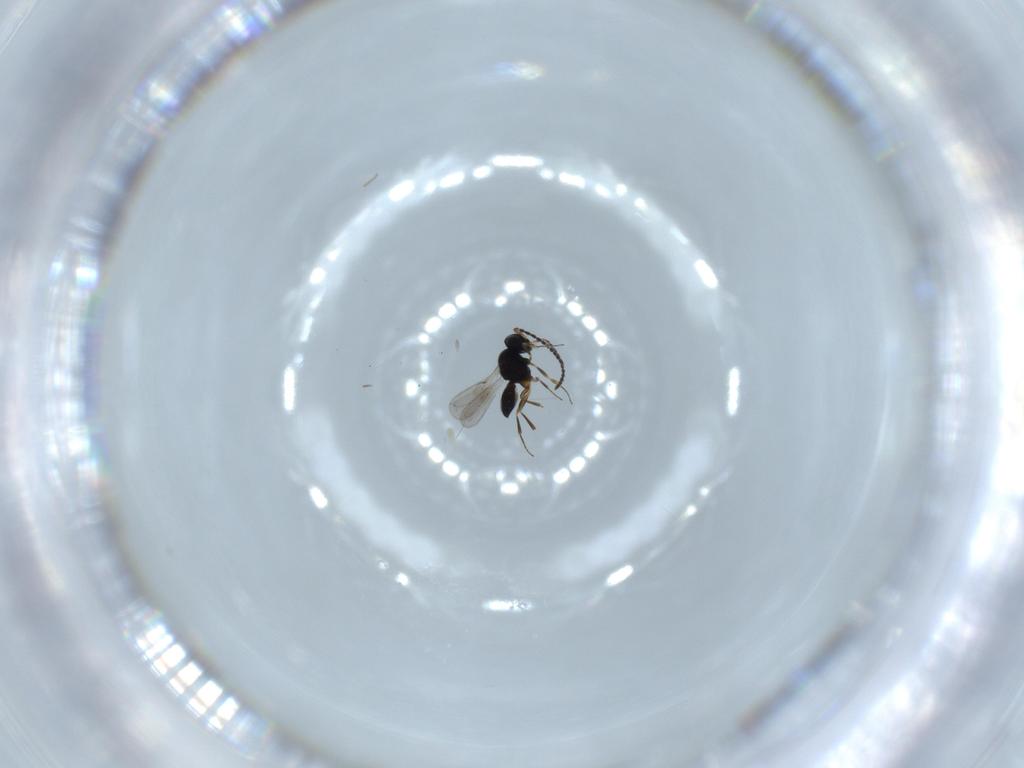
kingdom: Animalia
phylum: Arthropoda
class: Insecta
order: Hymenoptera
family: Scelionidae
